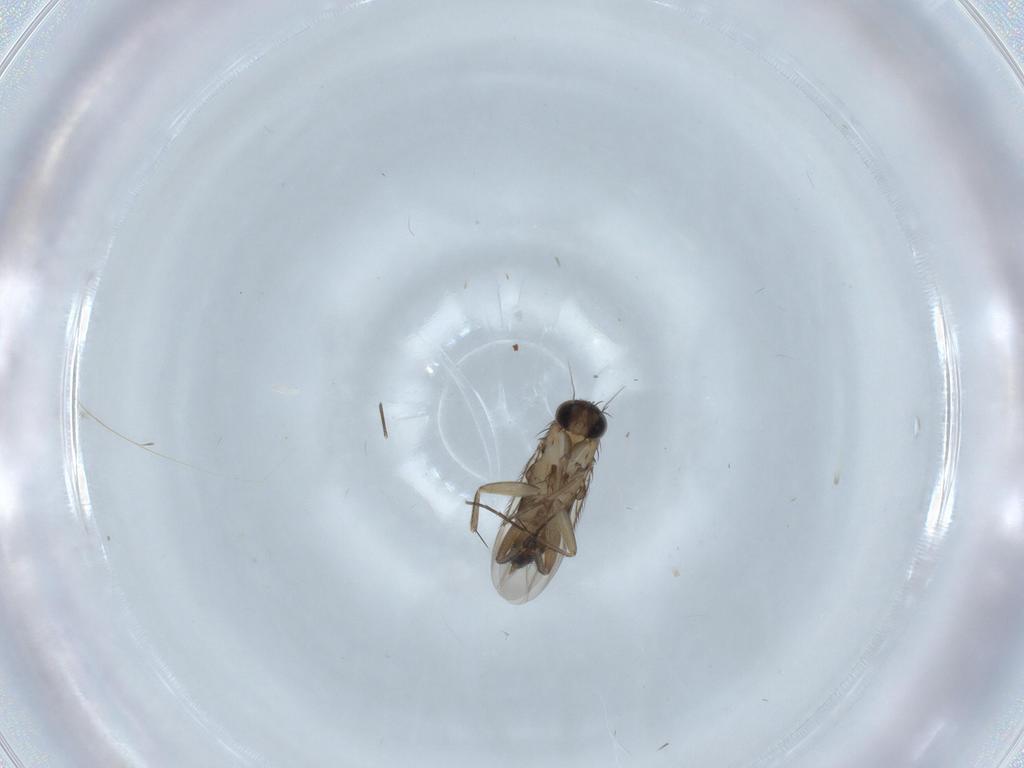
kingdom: Animalia
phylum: Arthropoda
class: Insecta
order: Diptera
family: Phoridae
